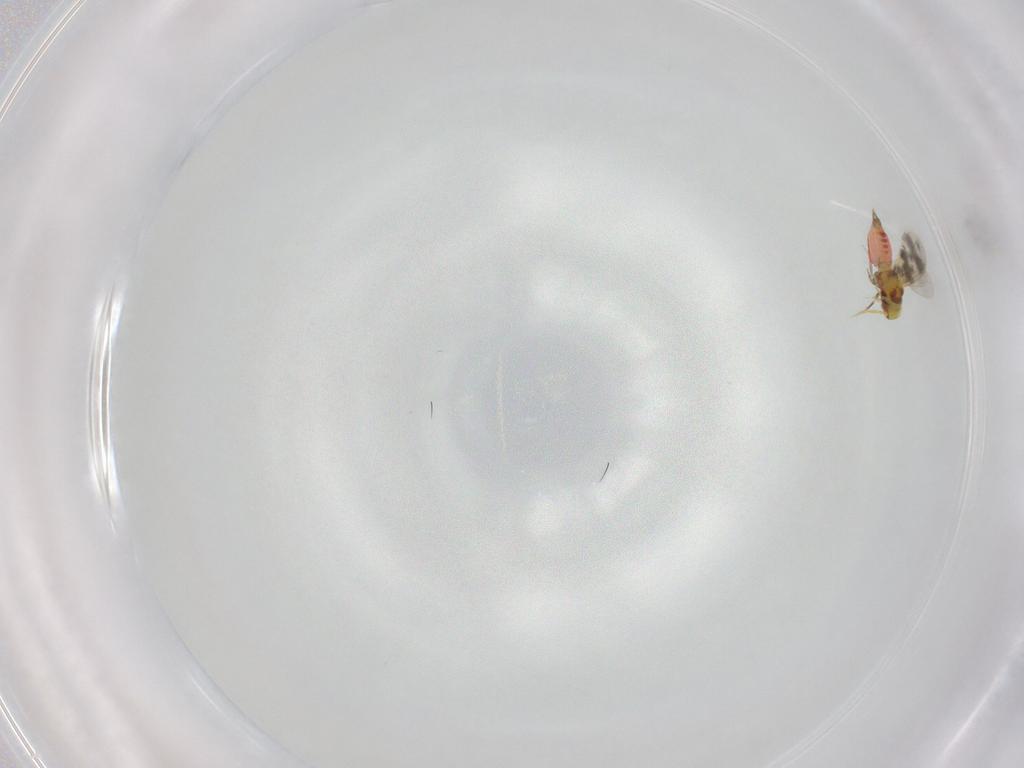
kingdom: Animalia
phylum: Arthropoda
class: Insecta
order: Hemiptera
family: Aleyrodidae
